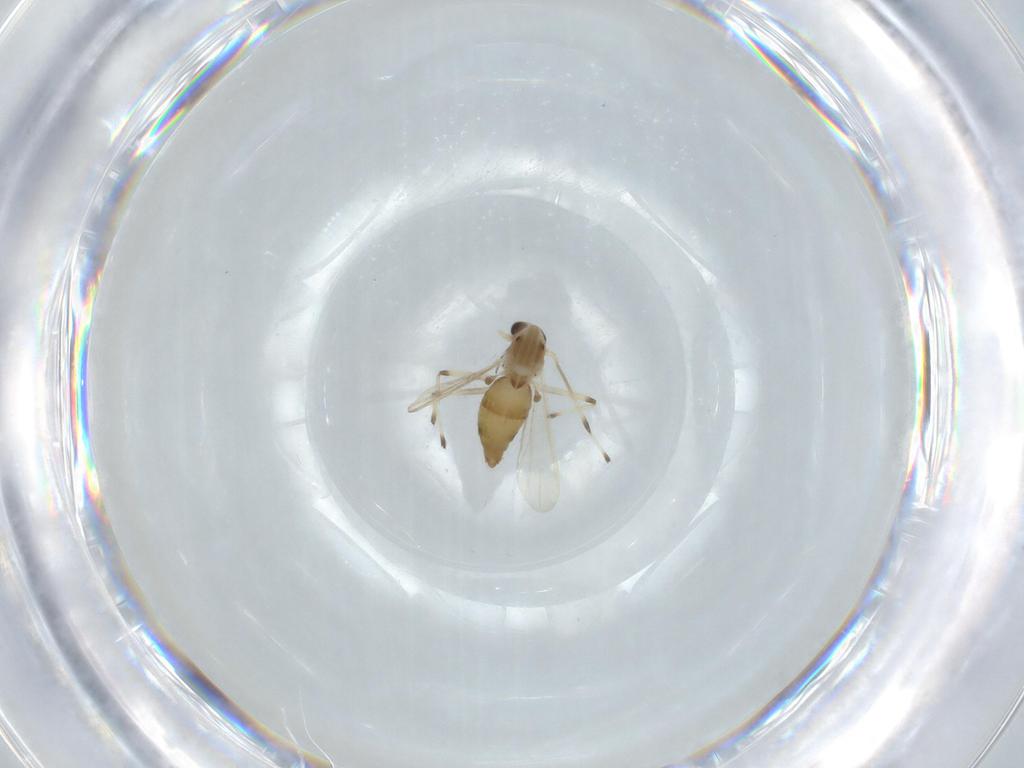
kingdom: Animalia
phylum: Arthropoda
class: Insecta
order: Diptera
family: Chironomidae
